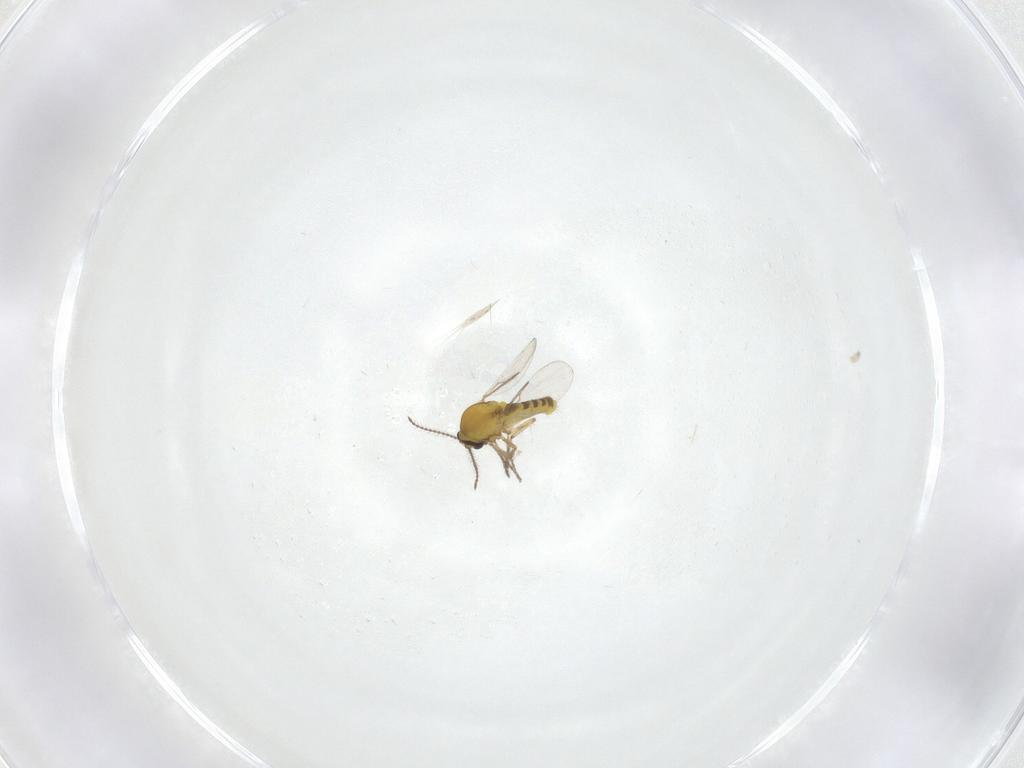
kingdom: Animalia
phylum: Arthropoda
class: Insecta
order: Diptera
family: Ceratopogonidae
